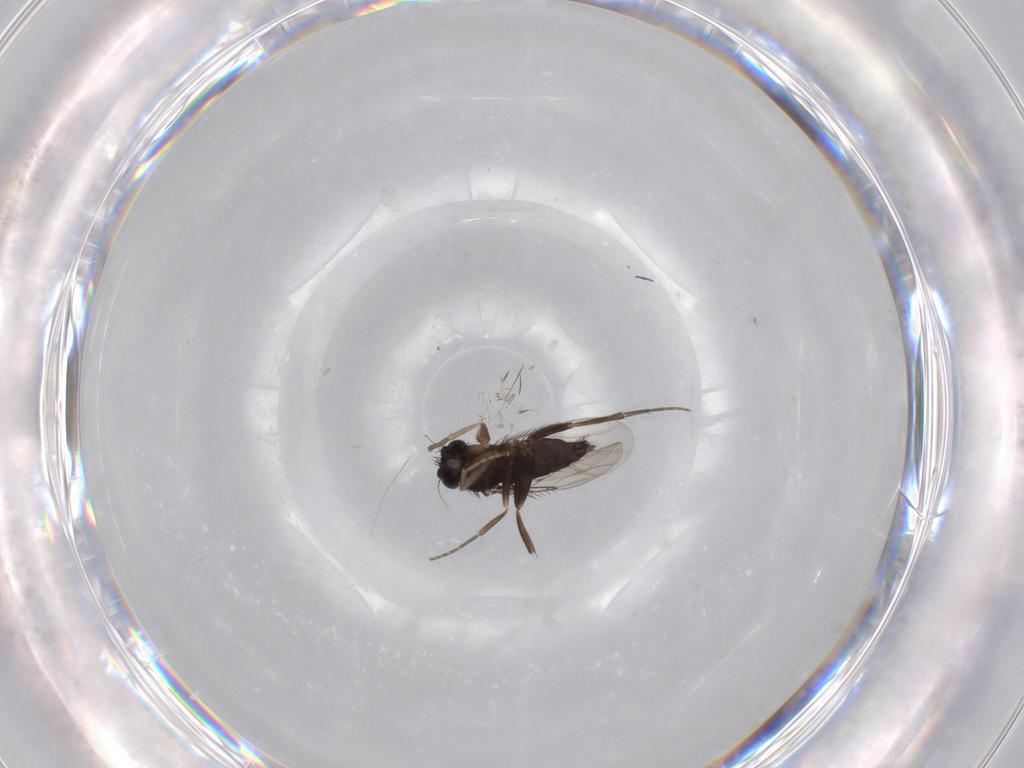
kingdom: Animalia
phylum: Arthropoda
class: Insecta
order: Diptera
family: Phoridae
